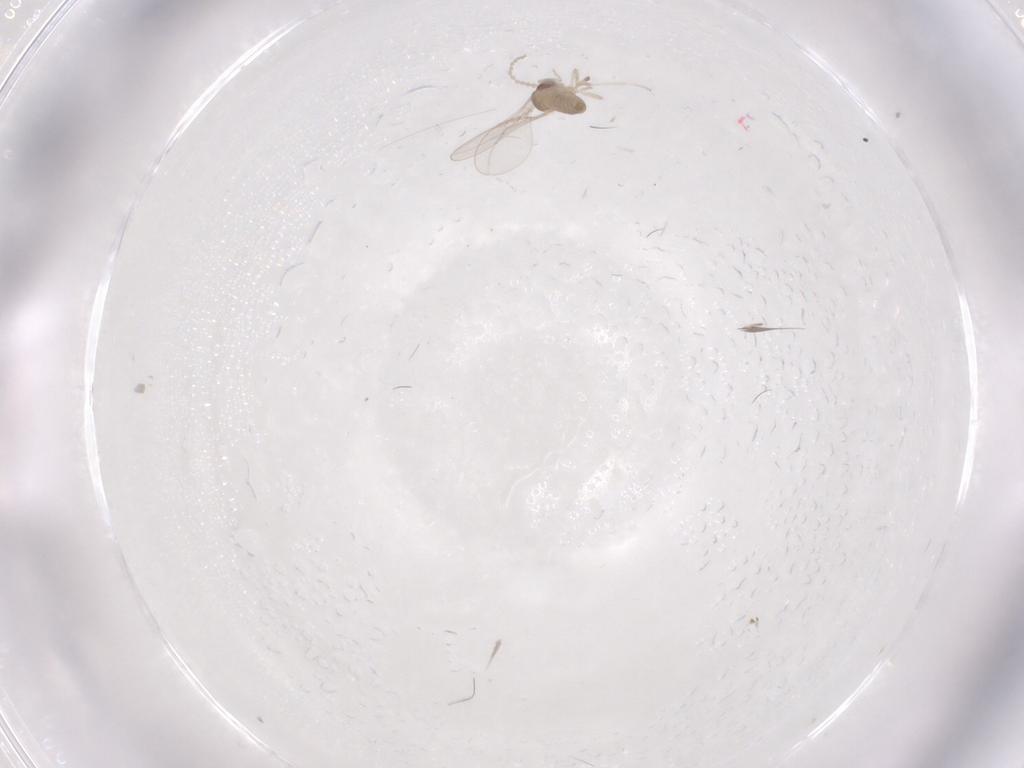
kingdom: Animalia
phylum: Arthropoda
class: Insecta
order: Diptera
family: Cecidomyiidae
